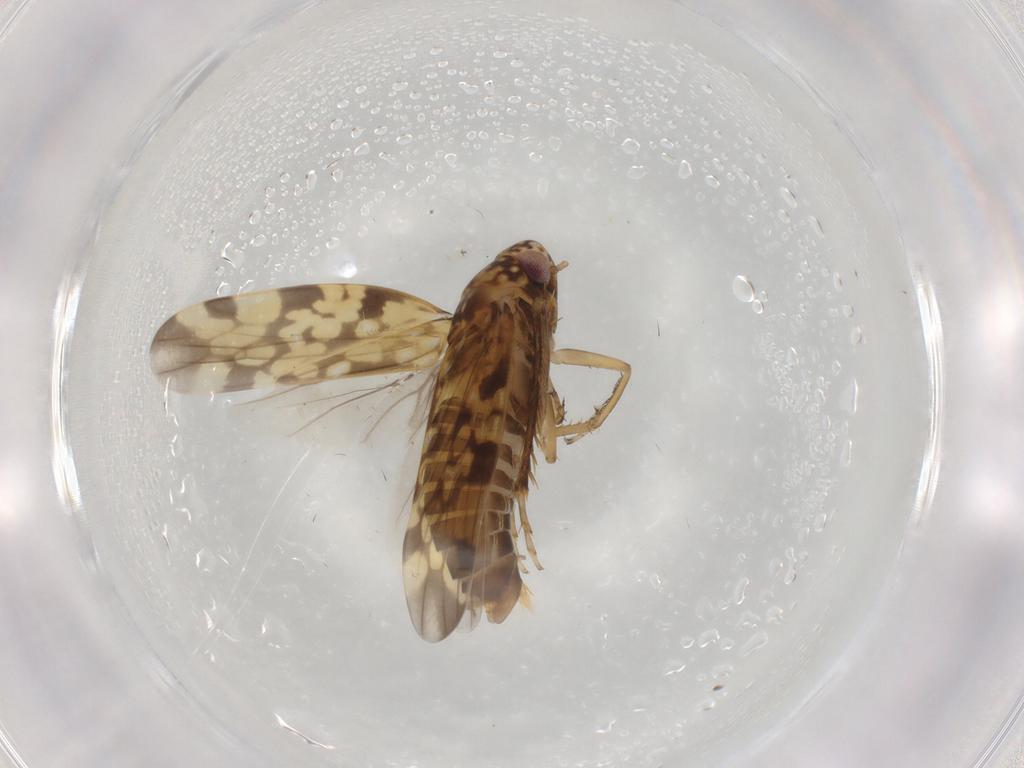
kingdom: Animalia
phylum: Arthropoda
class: Insecta
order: Hemiptera
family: Cicadellidae
